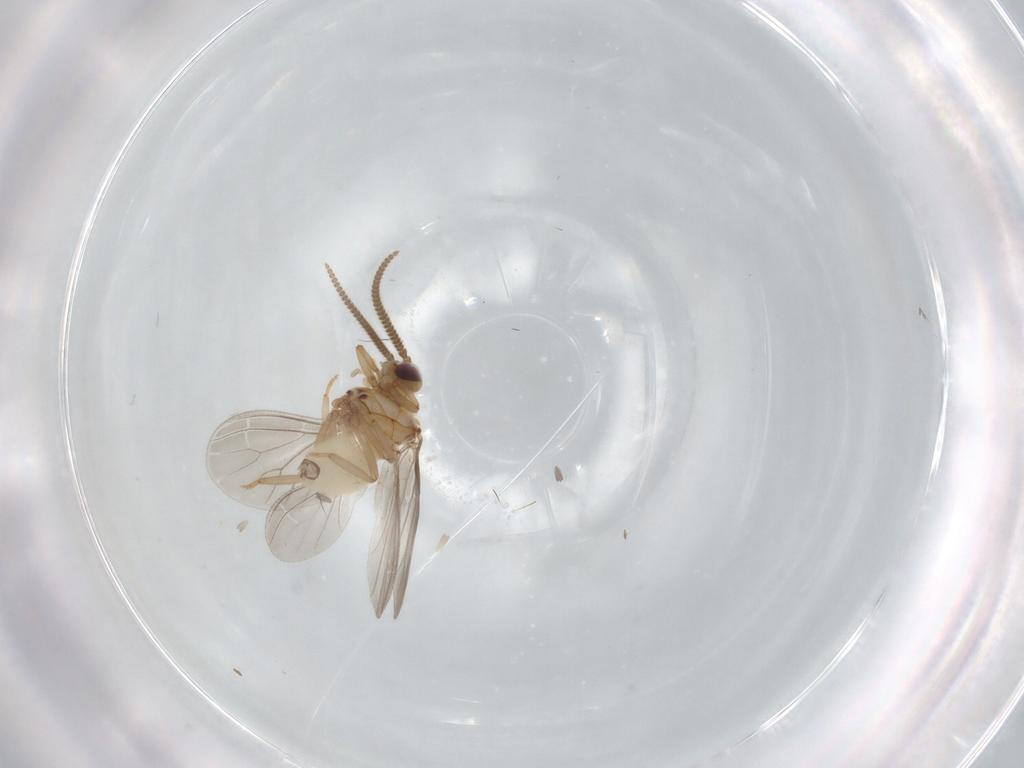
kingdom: Animalia
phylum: Arthropoda
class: Insecta
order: Neuroptera
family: Coniopterygidae
